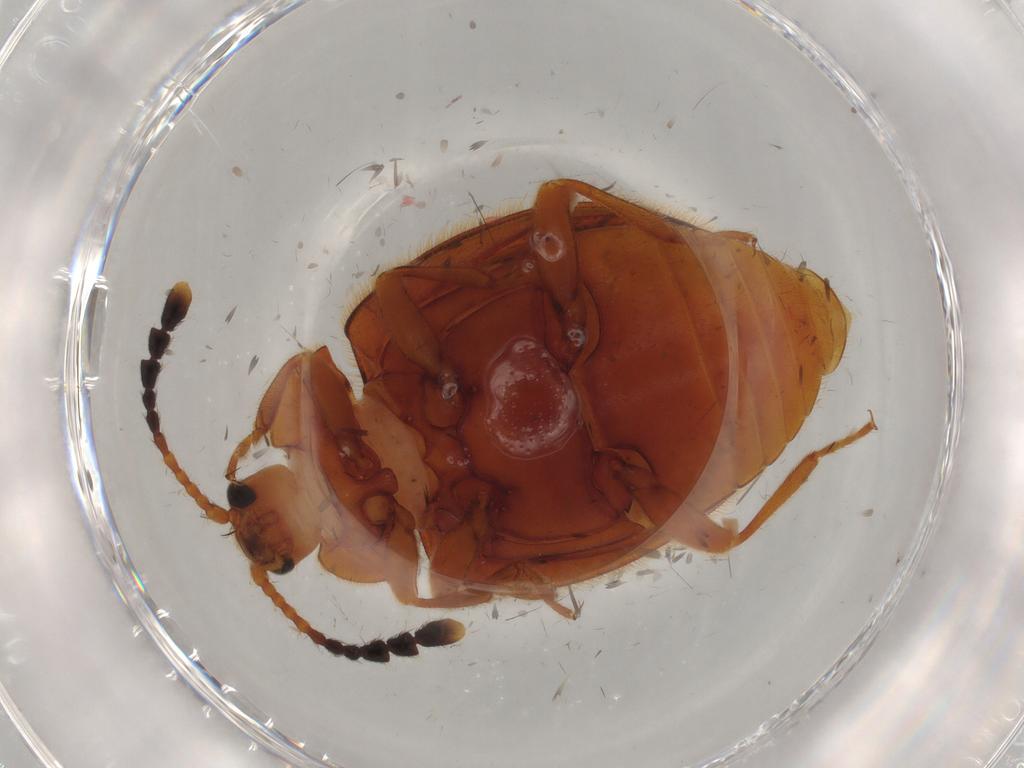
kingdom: Animalia
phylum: Arthropoda
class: Insecta
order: Coleoptera
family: Endomychidae
